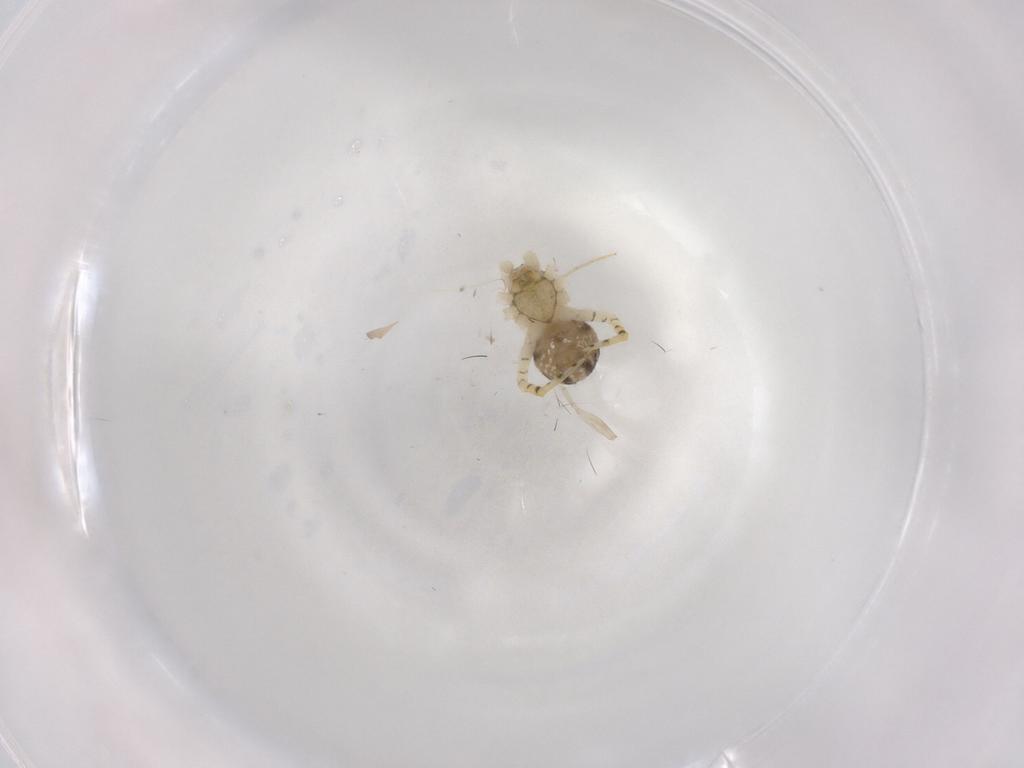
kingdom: Animalia
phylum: Arthropoda
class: Arachnida
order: Araneae
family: Theridiidae
